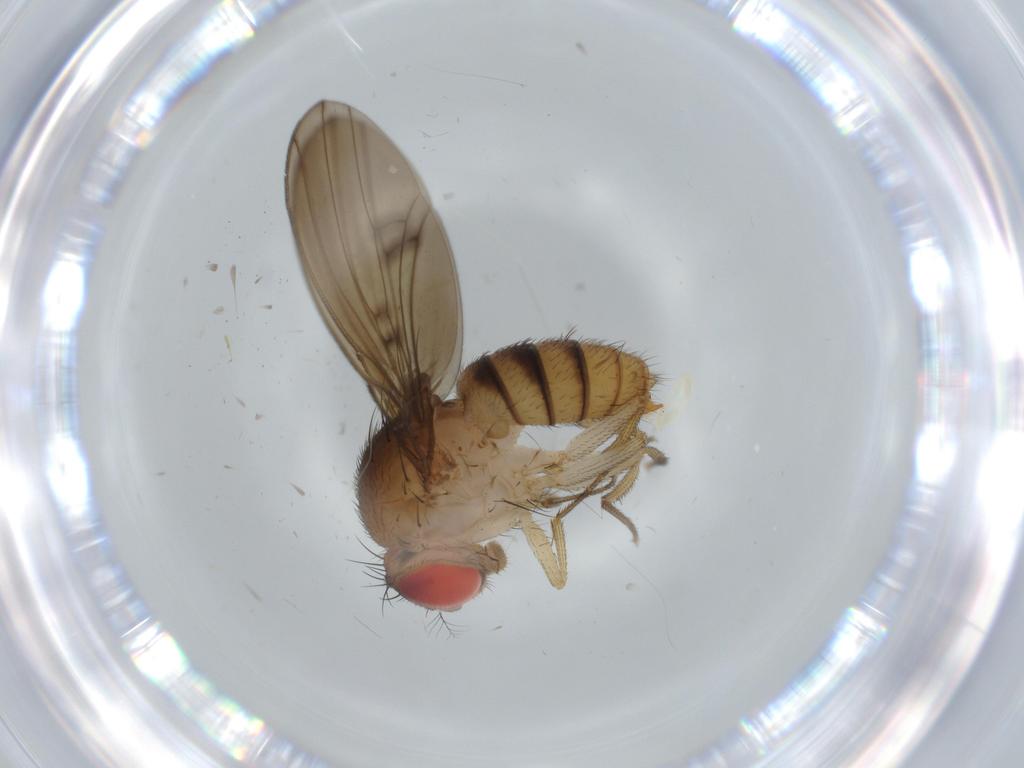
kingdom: Animalia
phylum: Arthropoda
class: Insecta
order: Diptera
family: Drosophilidae
